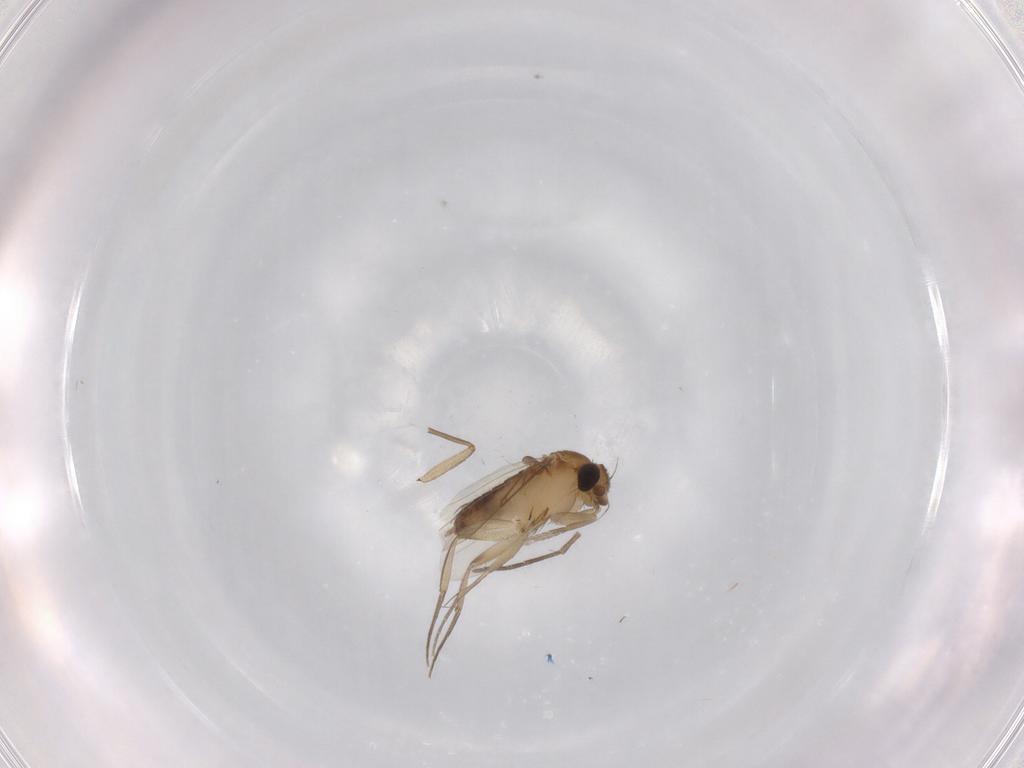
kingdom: Animalia
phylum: Arthropoda
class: Insecta
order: Diptera
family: Phoridae
